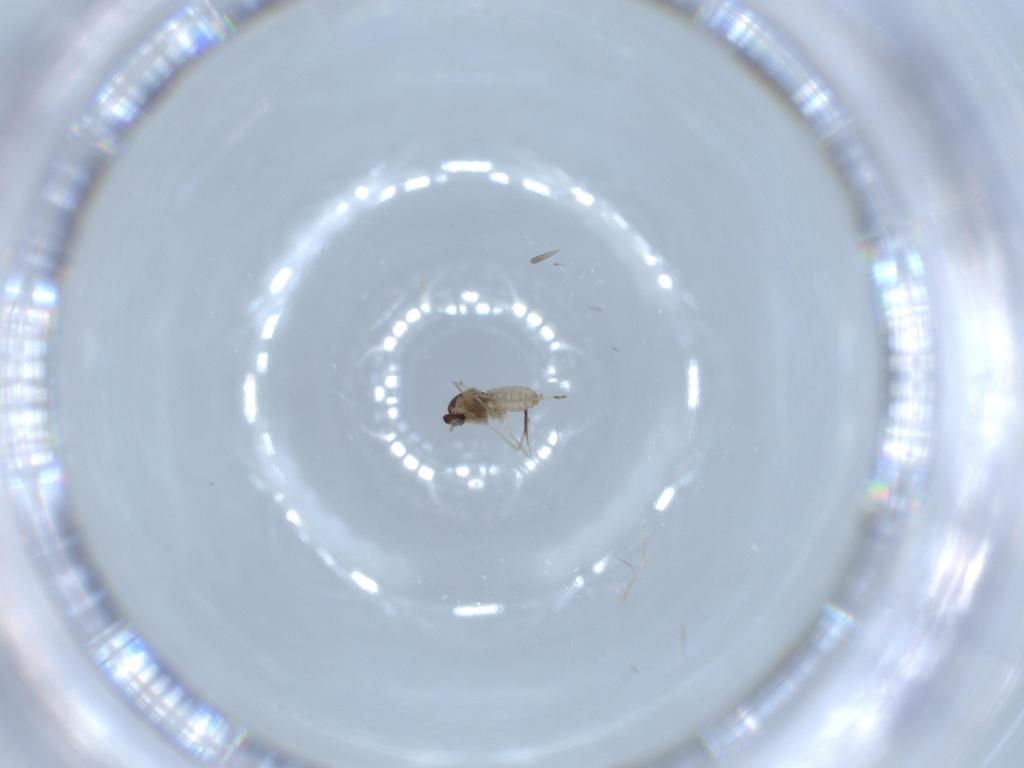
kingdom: Animalia
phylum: Arthropoda
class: Insecta
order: Diptera
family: Cecidomyiidae
